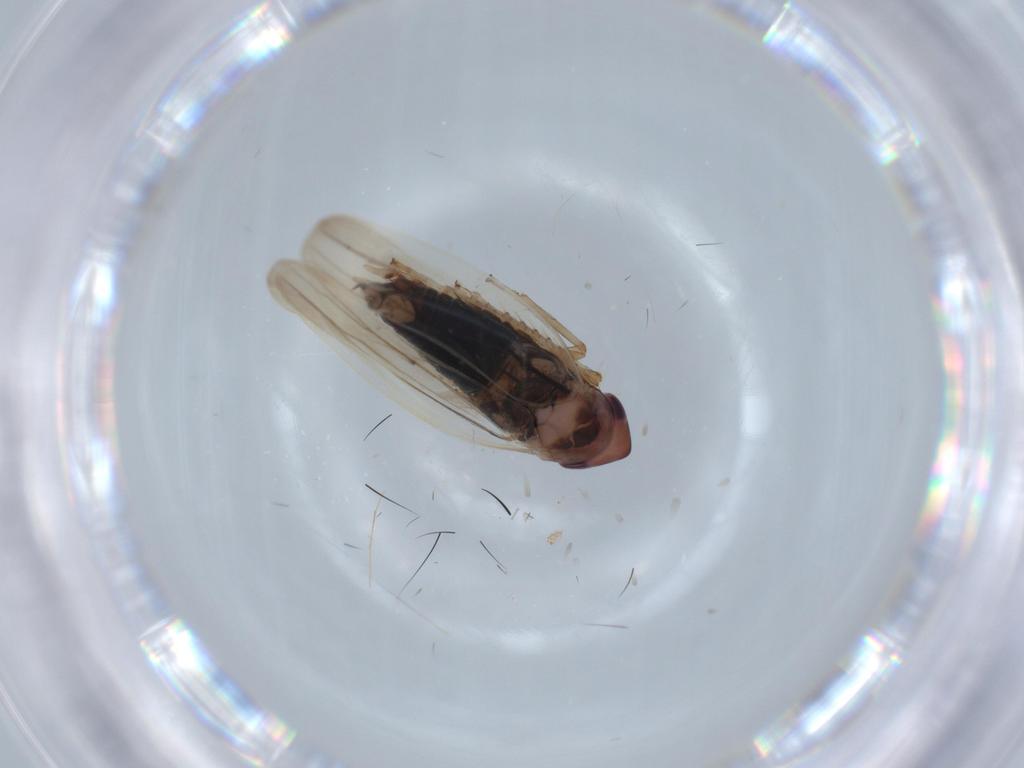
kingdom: Animalia
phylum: Arthropoda
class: Insecta
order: Hemiptera
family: Cicadellidae
